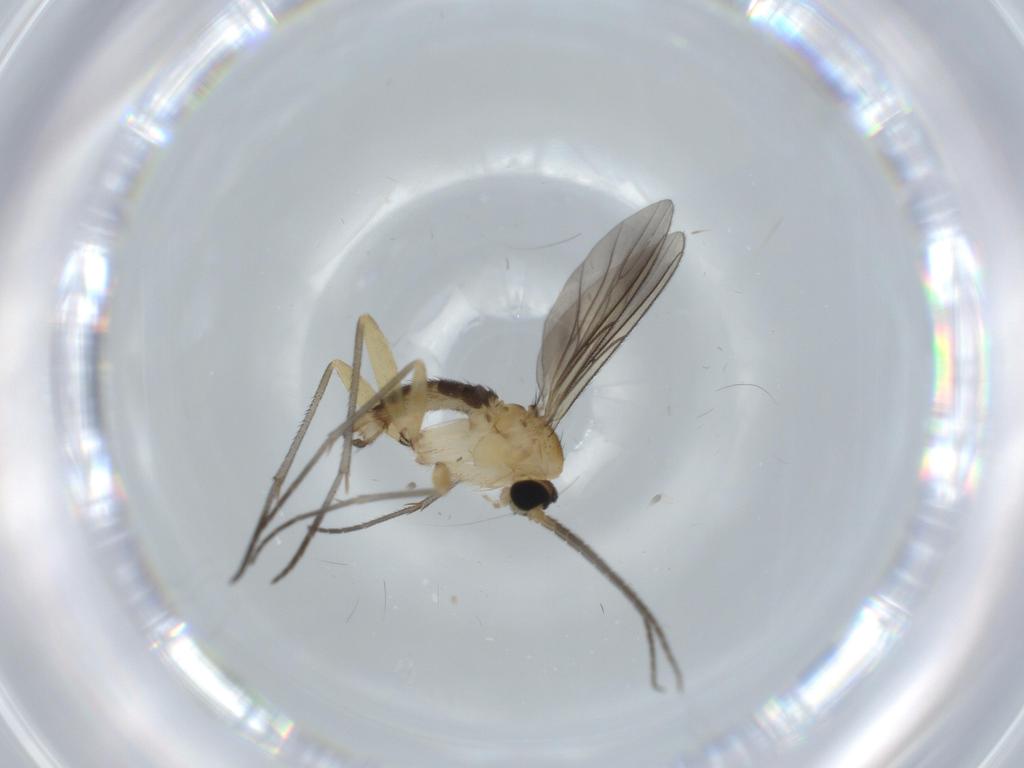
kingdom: Animalia
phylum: Arthropoda
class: Insecta
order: Diptera
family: Sciaridae
